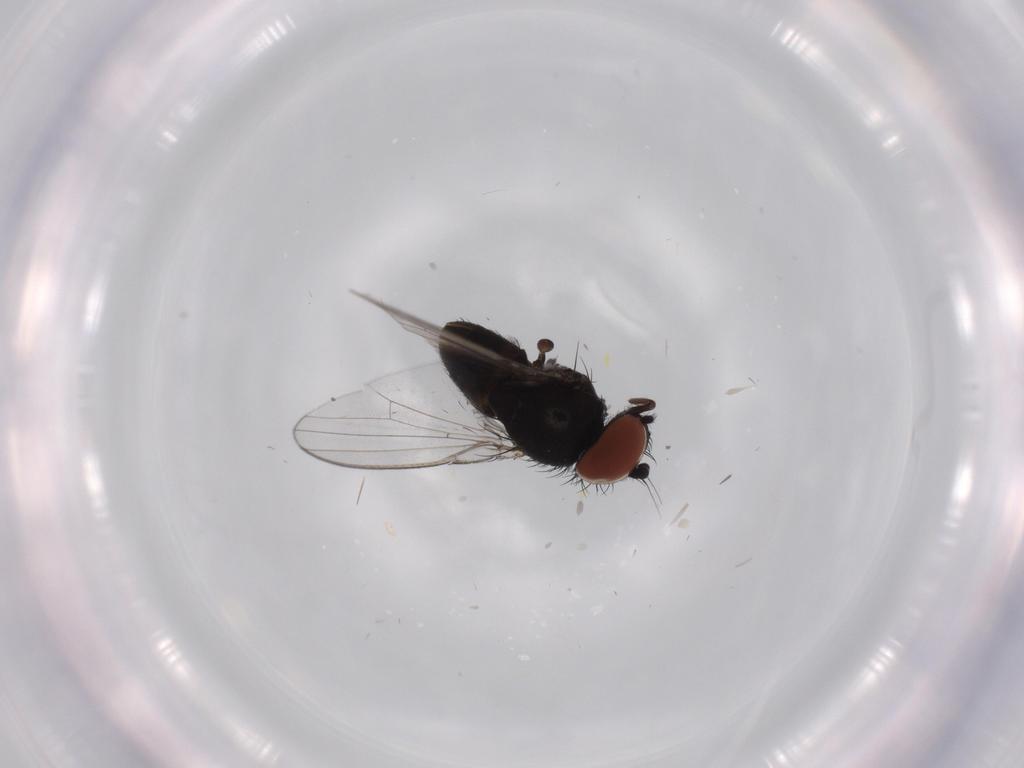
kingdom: Animalia
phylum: Arthropoda
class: Insecta
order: Diptera
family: Milichiidae
